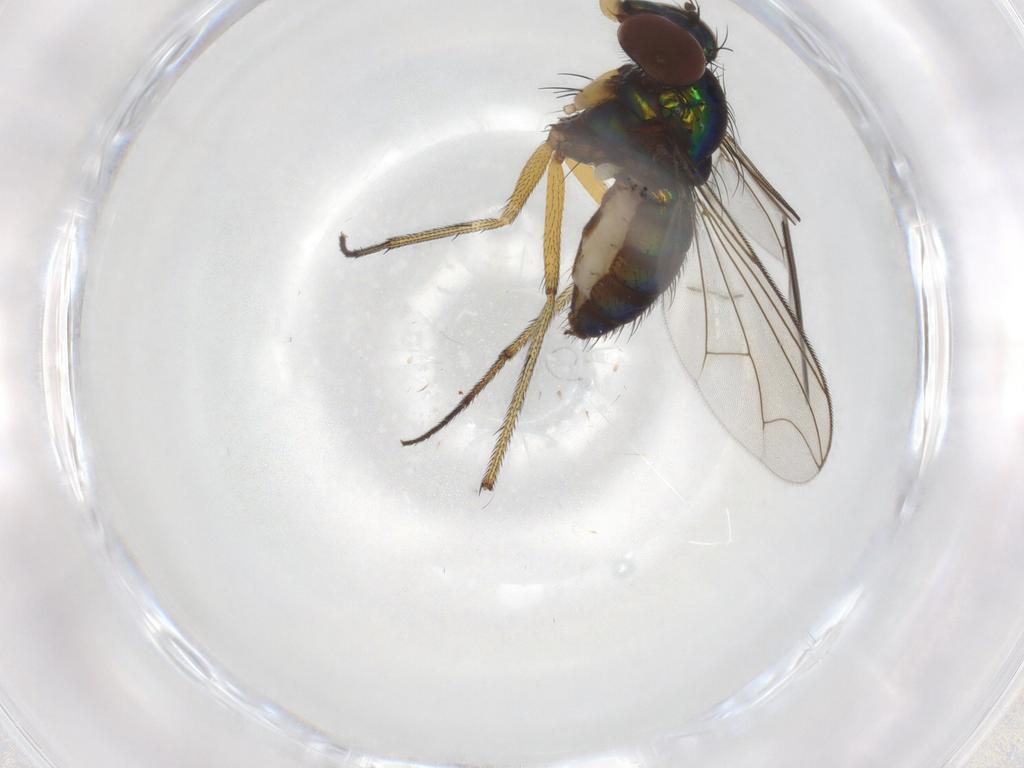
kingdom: Animalia
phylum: Arthropoda
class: Insecta
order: Diptera
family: Dolichopodidae
